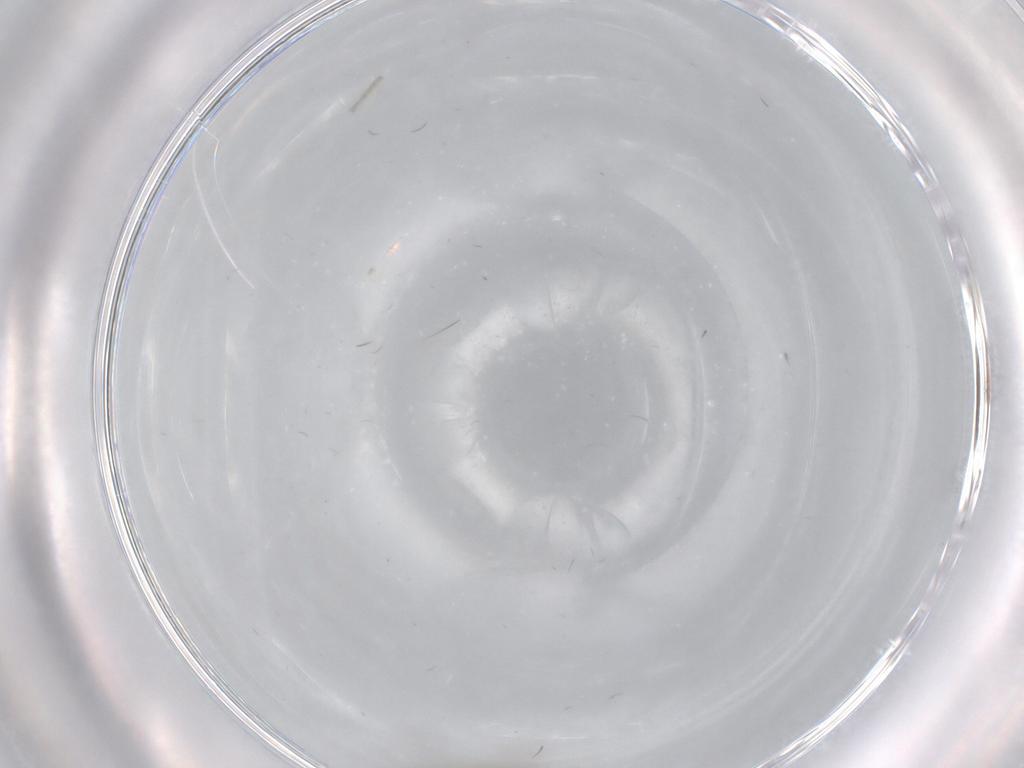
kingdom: Animalia
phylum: Arthropoda
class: Insecta
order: Diptera
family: Phoridae
